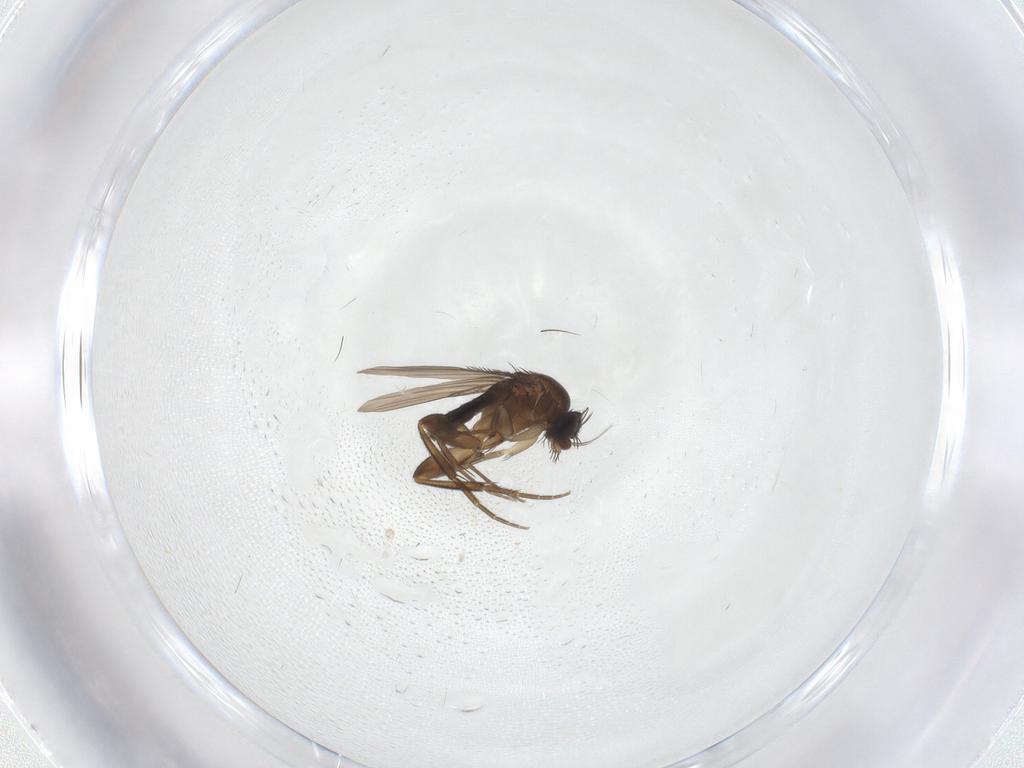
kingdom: Animalia
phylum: Arthropoda
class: Insecta
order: Diptera
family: Phoridae
